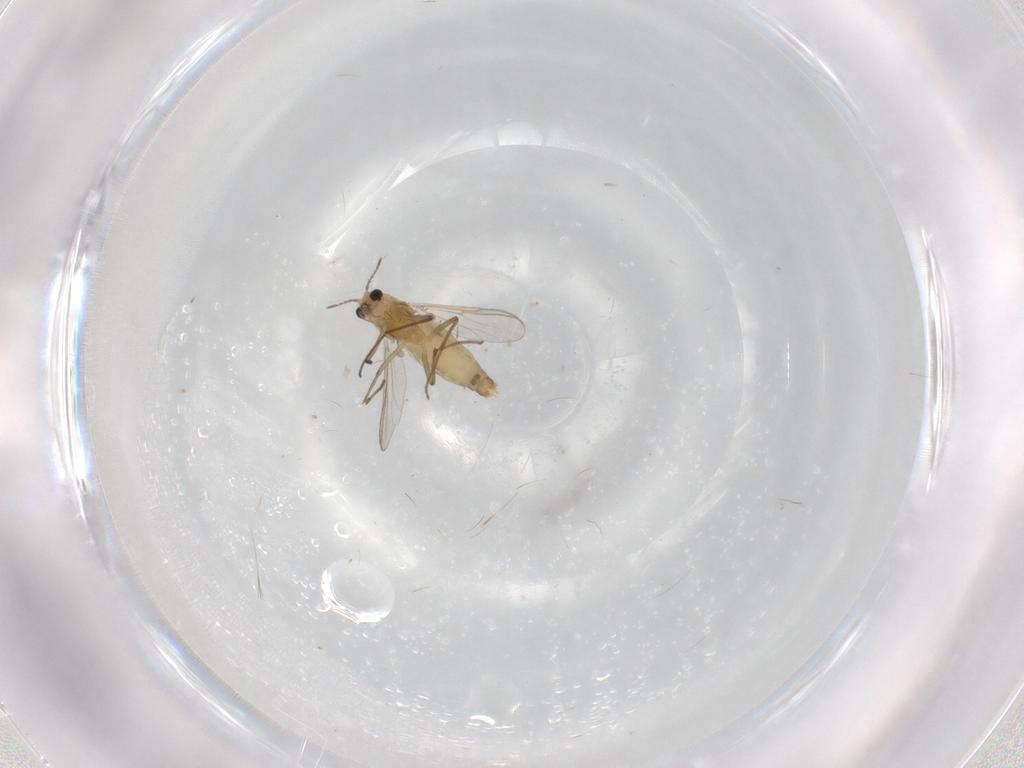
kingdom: Animalia
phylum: Arthropoda
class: Insecta
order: Diptera
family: Chironomidae
